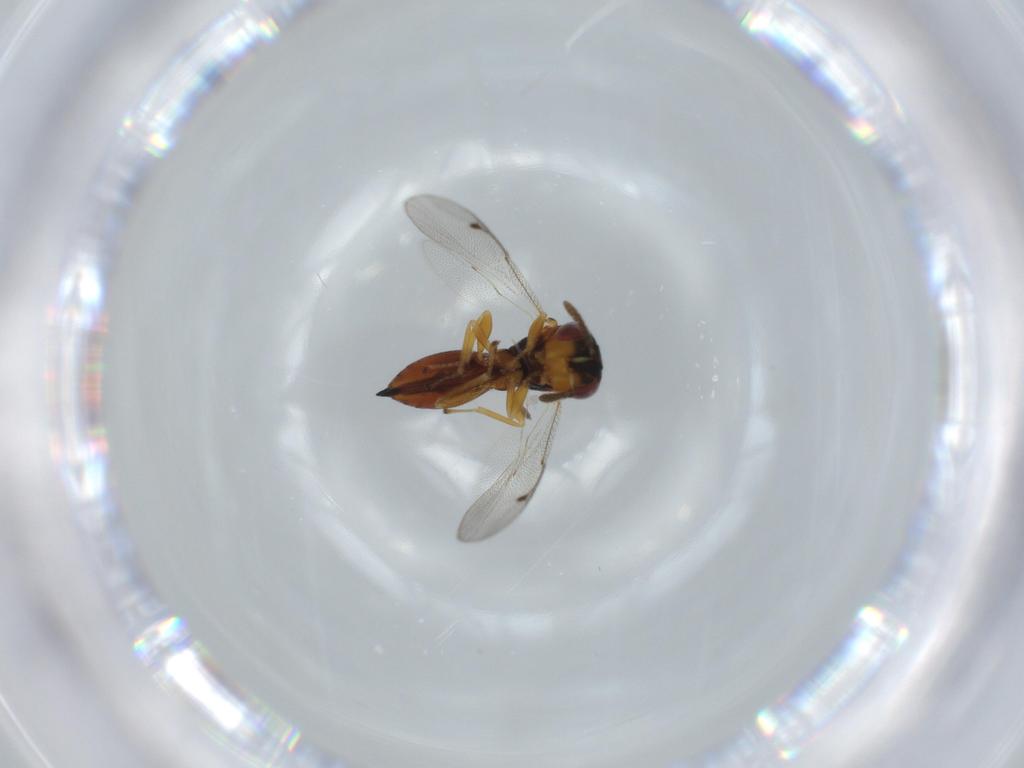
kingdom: Animalia
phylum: Arthropoda
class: Insecta
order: Hymenoptera
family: Eurytomidae
